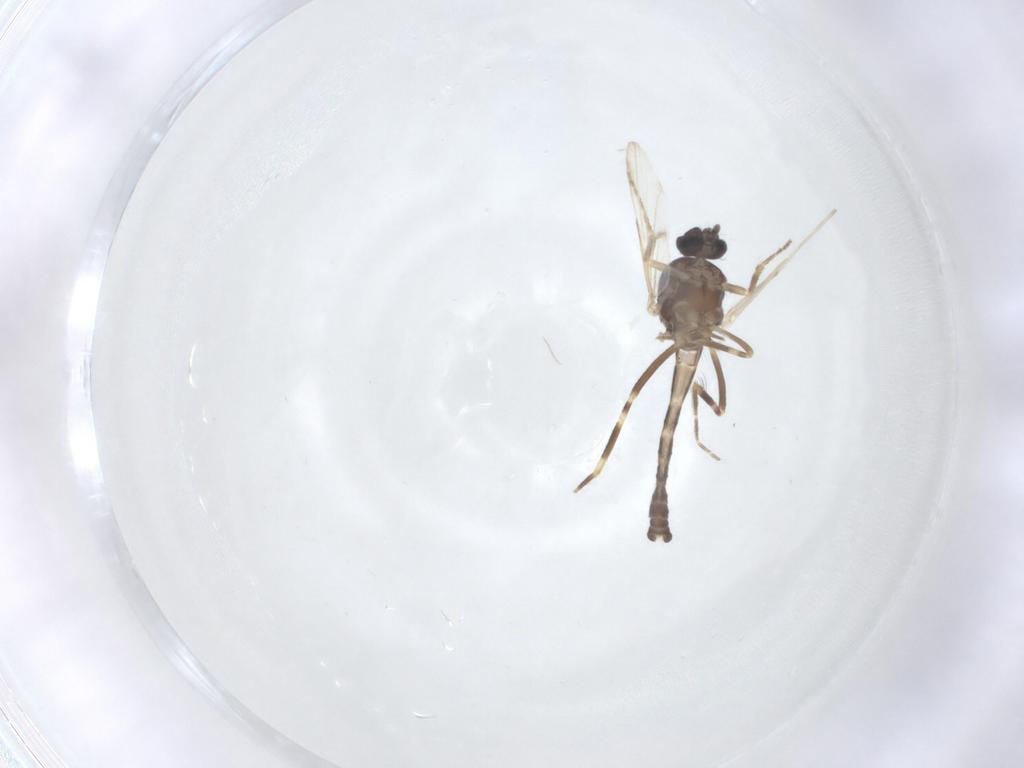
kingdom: Animalia
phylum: Arthropoda
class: Insecta
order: Diptera
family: Ceratopogonidae
